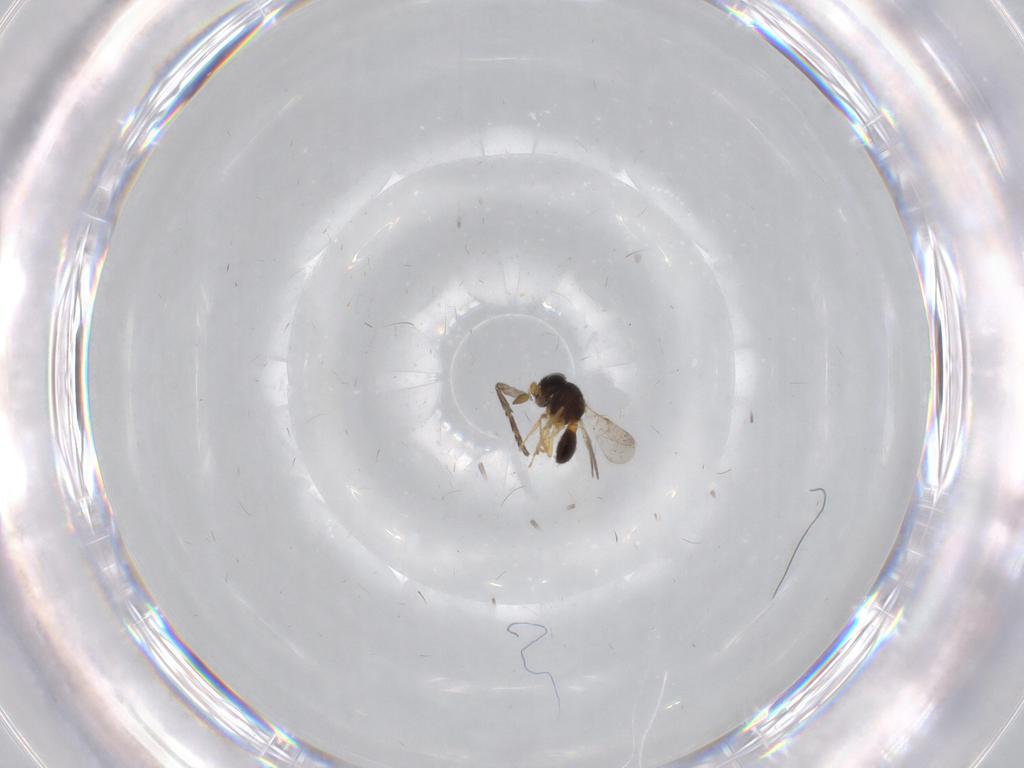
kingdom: Animalia
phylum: Arthropoda
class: Insecta
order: Hymenoptera
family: Scelionidae
